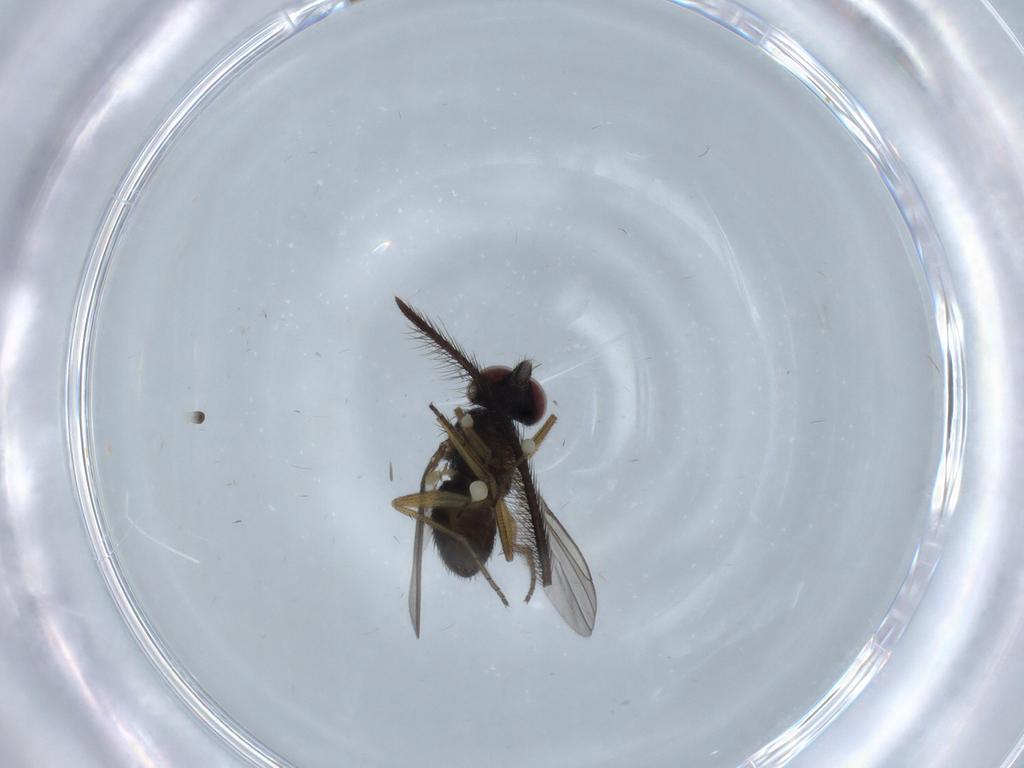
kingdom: Animalia
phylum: Arthropoda
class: Insecta
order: Diptera
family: Dolichopodidae
